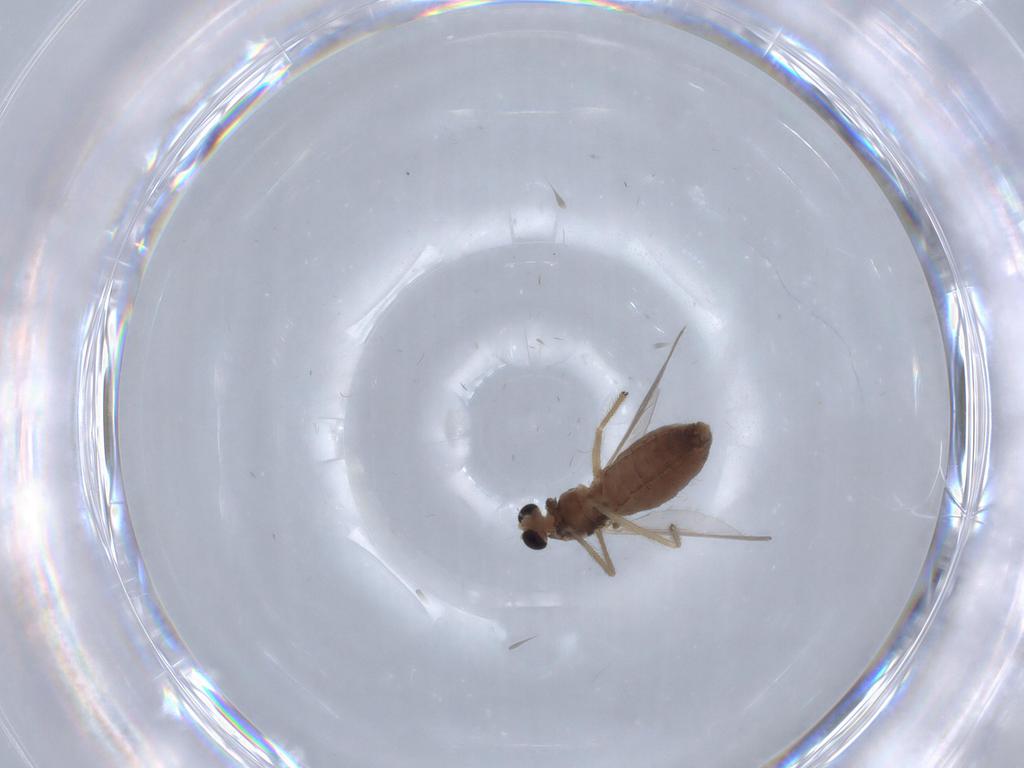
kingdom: Animalia
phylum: Arthropoda
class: Insecta
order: Diptera
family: Chironomidae
